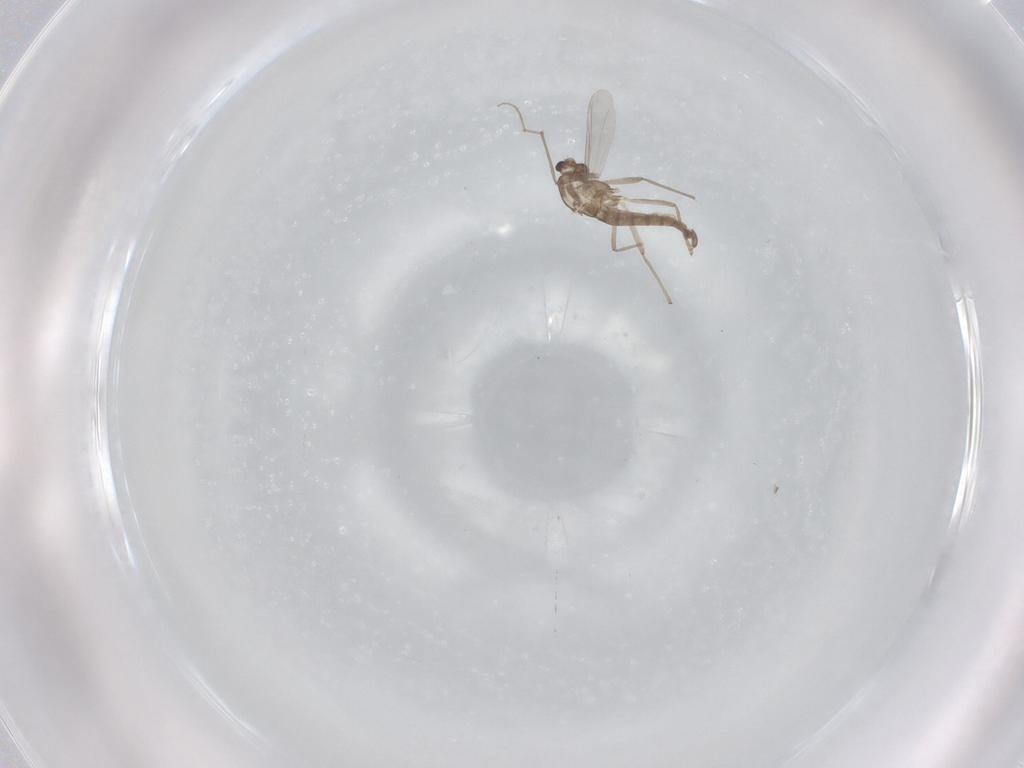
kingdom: Animalia
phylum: Arthropoda
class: Insecta
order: Diptera
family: Chironomidae
